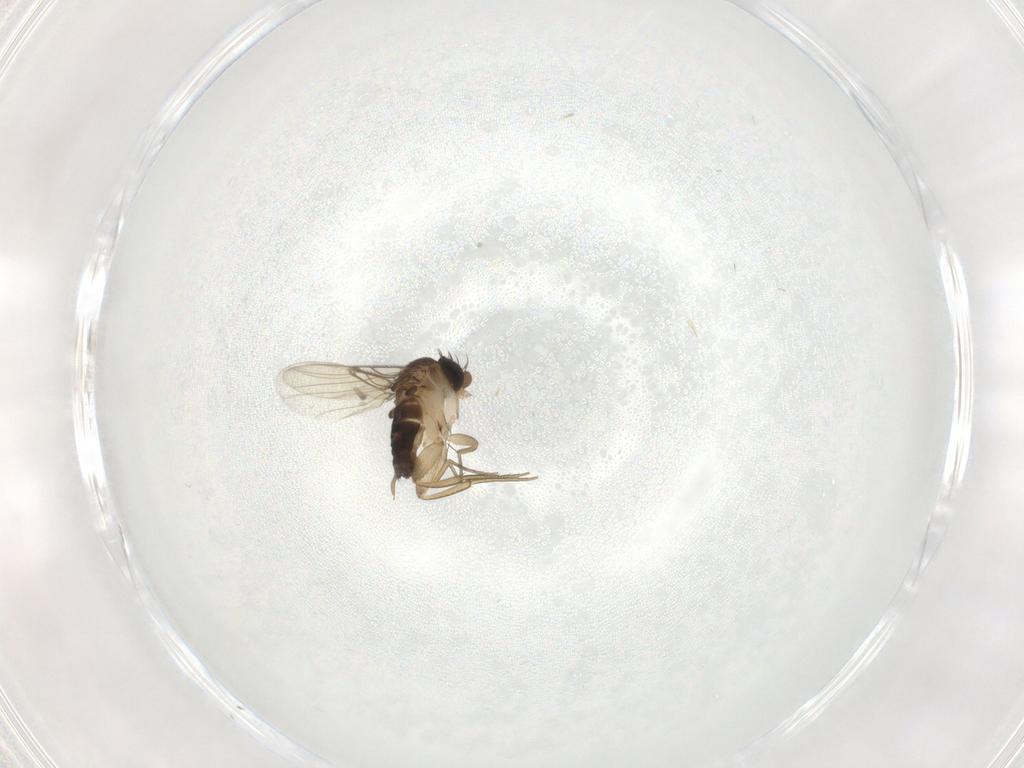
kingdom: Animalia
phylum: Arthropoda
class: Insecta
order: Diptera
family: Phoridae
